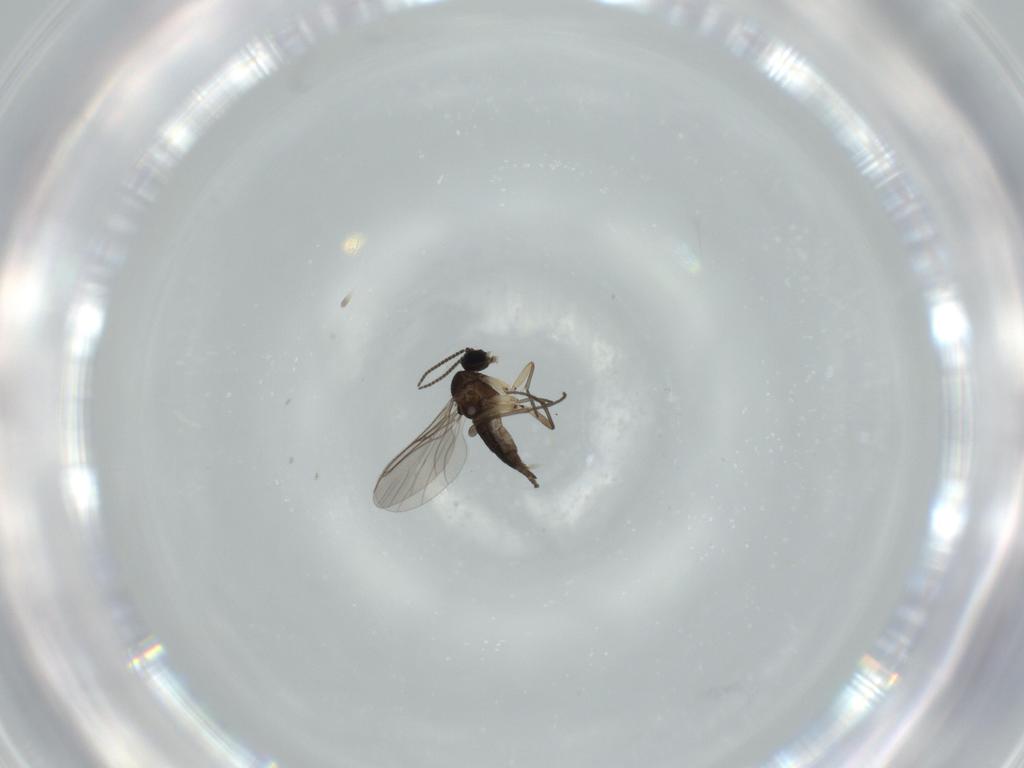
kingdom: Animalia
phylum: Arthropoda
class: Insecta
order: Diptera
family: Sciaridae
